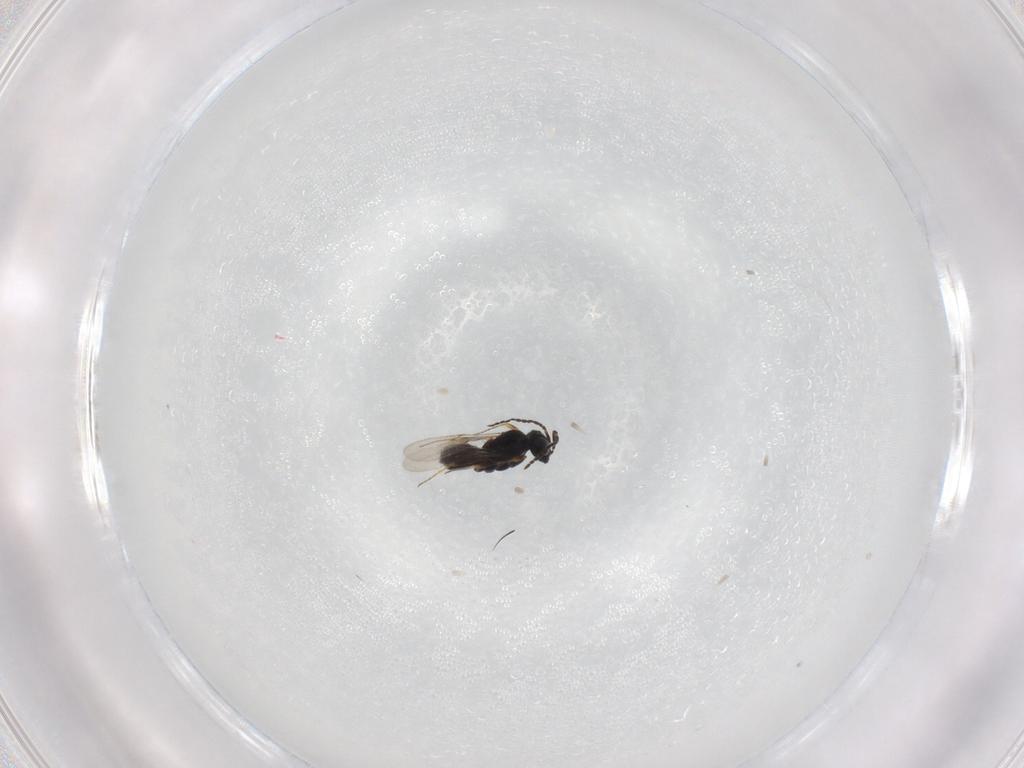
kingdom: Animalia
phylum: Arthropoda
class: Insecta
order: Hymenoptera
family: Scelionidae
